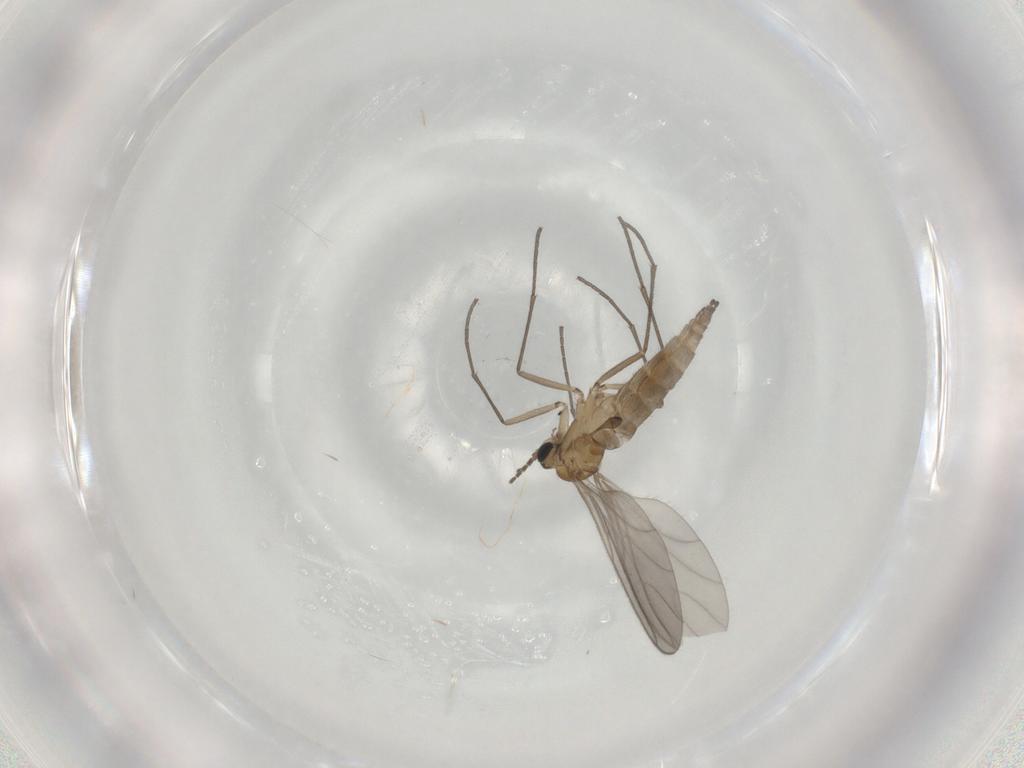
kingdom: Animalia
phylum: Arthropoda
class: Insecta
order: Diptera
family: Sciaridae
